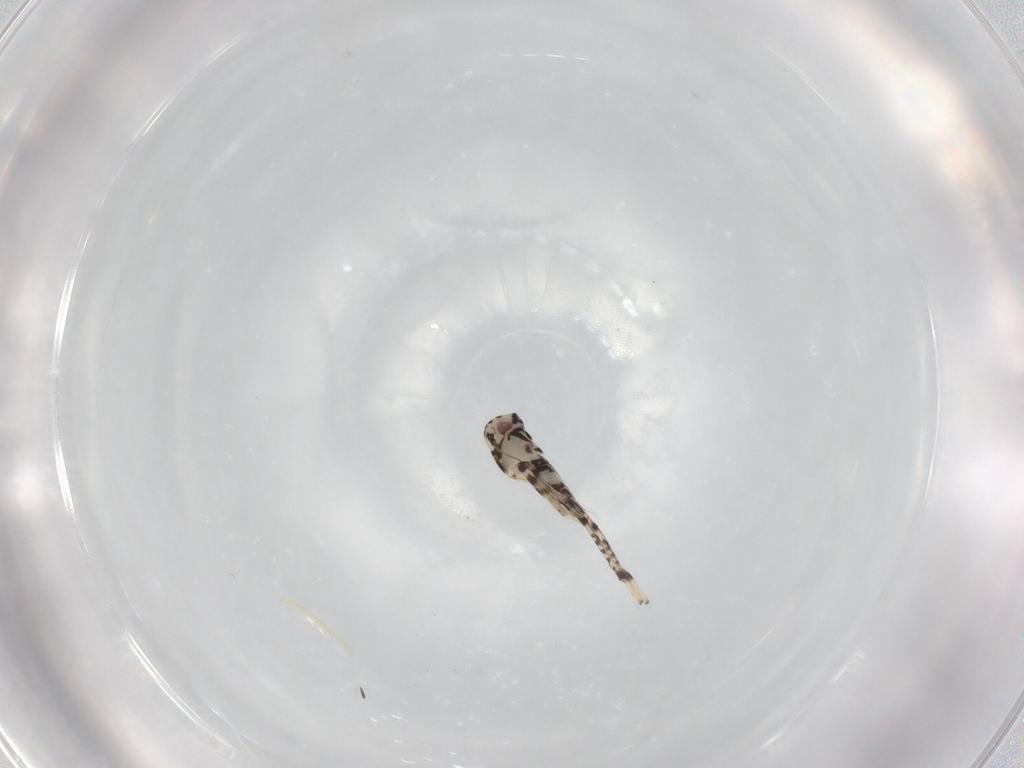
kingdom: Animalia
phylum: Arthropoda
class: Insecta
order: Hemiptera
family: Cicadellidae
